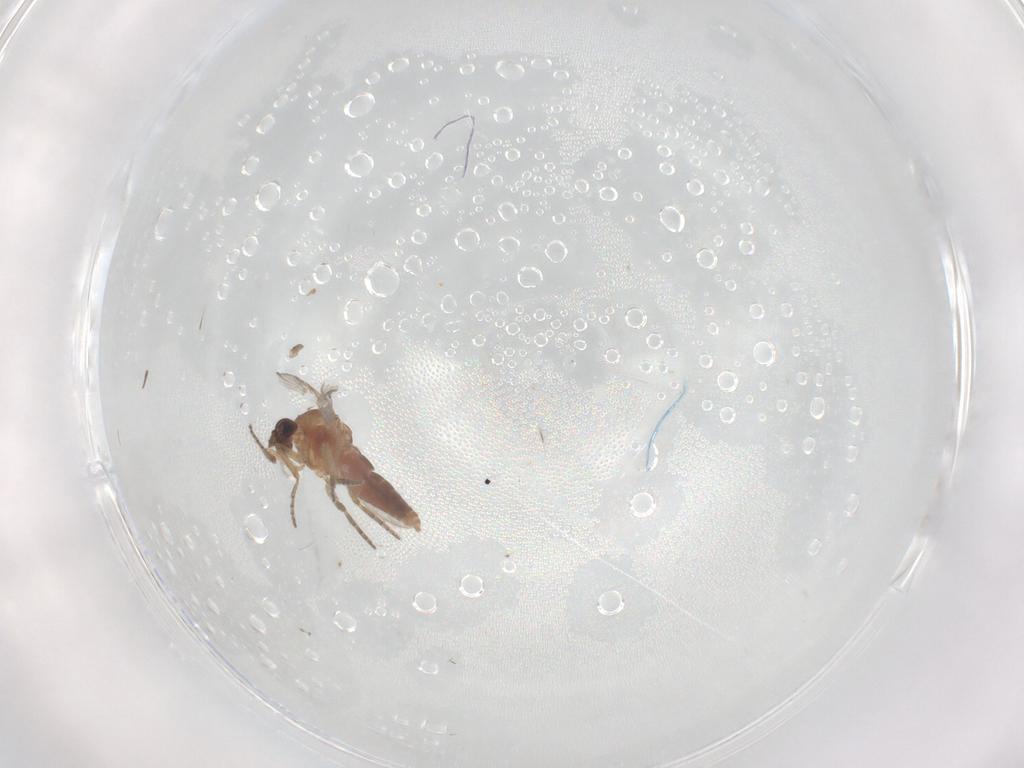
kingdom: Animalia
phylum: Arthropoda
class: Insecta
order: Diptera
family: Ceratopogonidae
